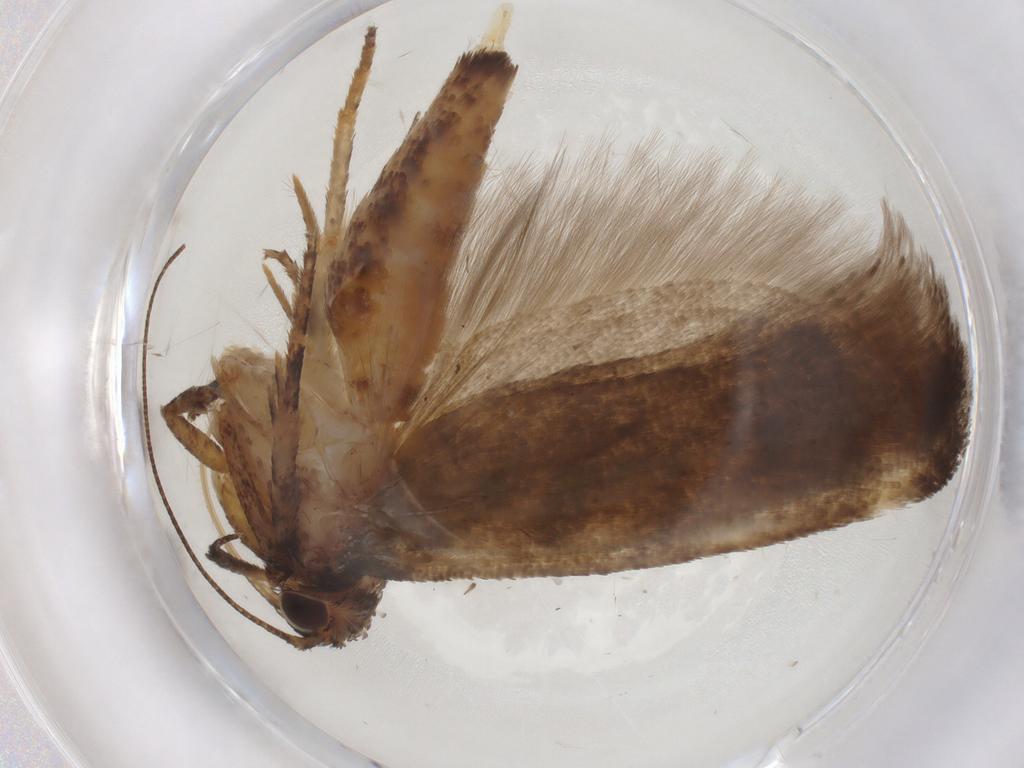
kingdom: Animalia
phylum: Arthropoda
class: Insecta
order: Lepidoptera
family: Gelechiidae
